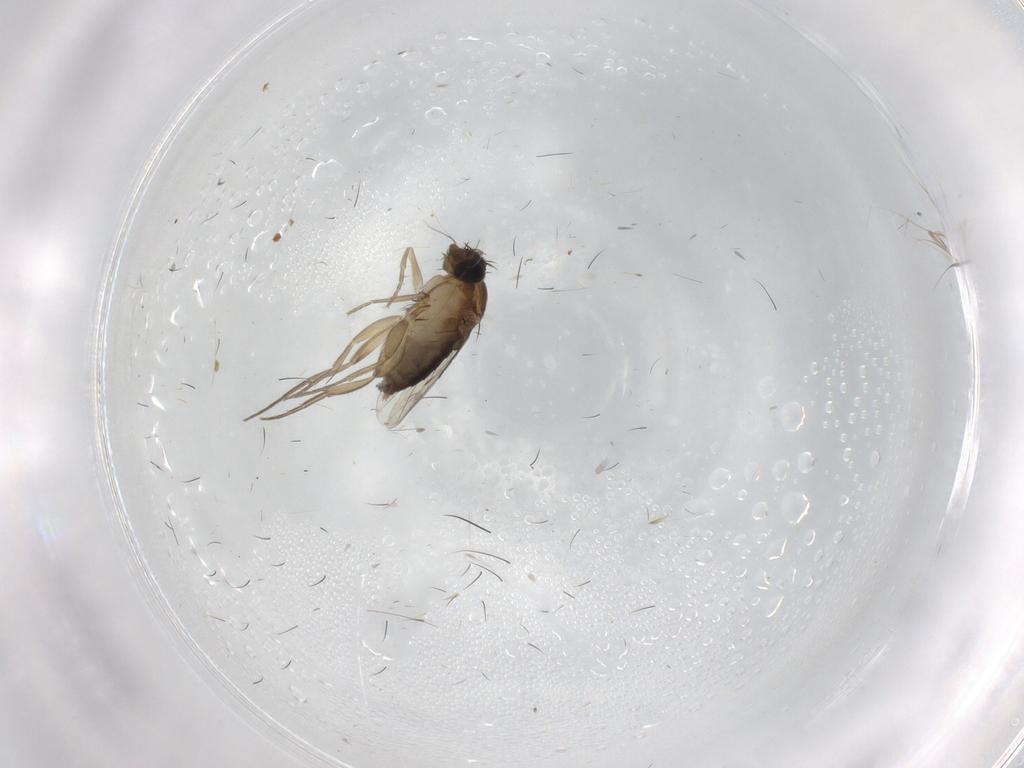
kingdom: Animalia
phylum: Arthropoda
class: Insecta
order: Diptera
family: Phoridae
